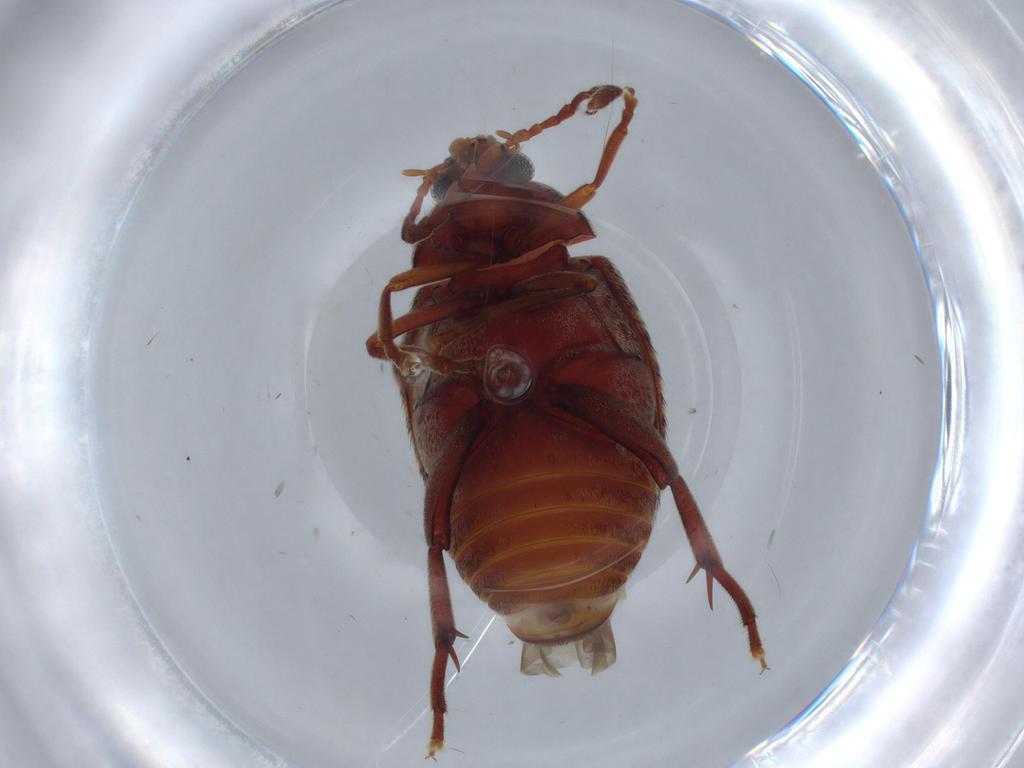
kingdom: Animalia
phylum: Arthropoda
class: Insecta
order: Coleoptera
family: Chrysomelidae
